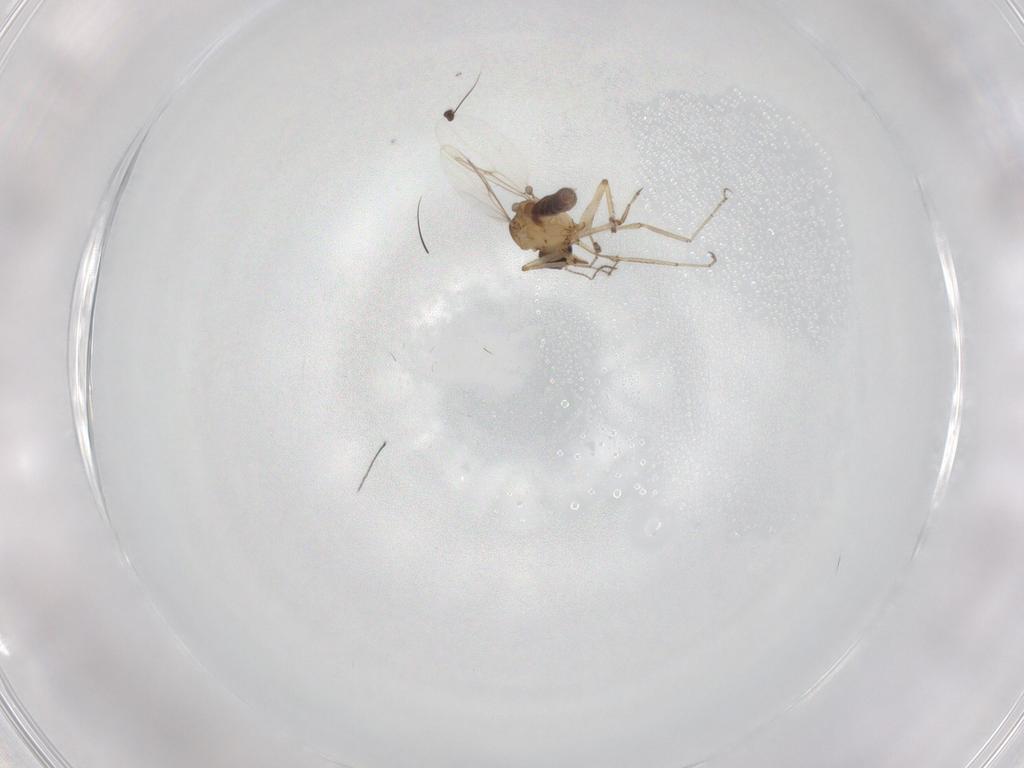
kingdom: Animalia
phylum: Arthropoda
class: Insecta
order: Diptera
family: Ceratopogonidae
